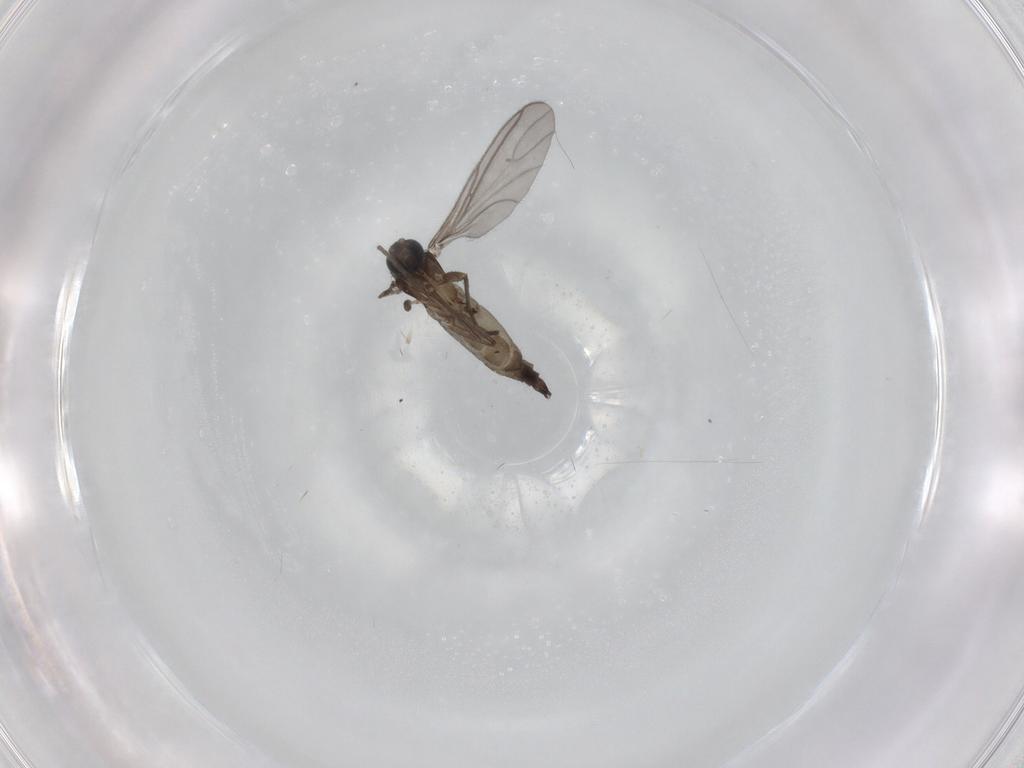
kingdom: Animalia
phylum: Arthropoda
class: Insecta
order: Diptera
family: Sciaridae
